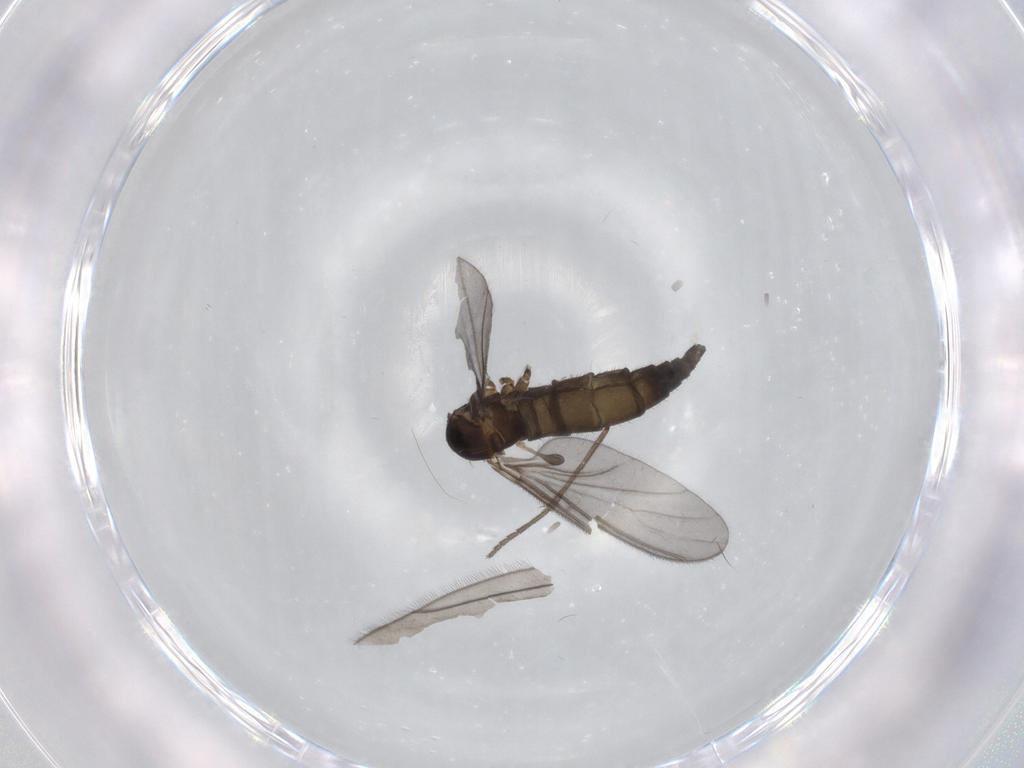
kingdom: Animalia
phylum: Arthropoda
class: Insecta
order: Diptera
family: Sciaridae
